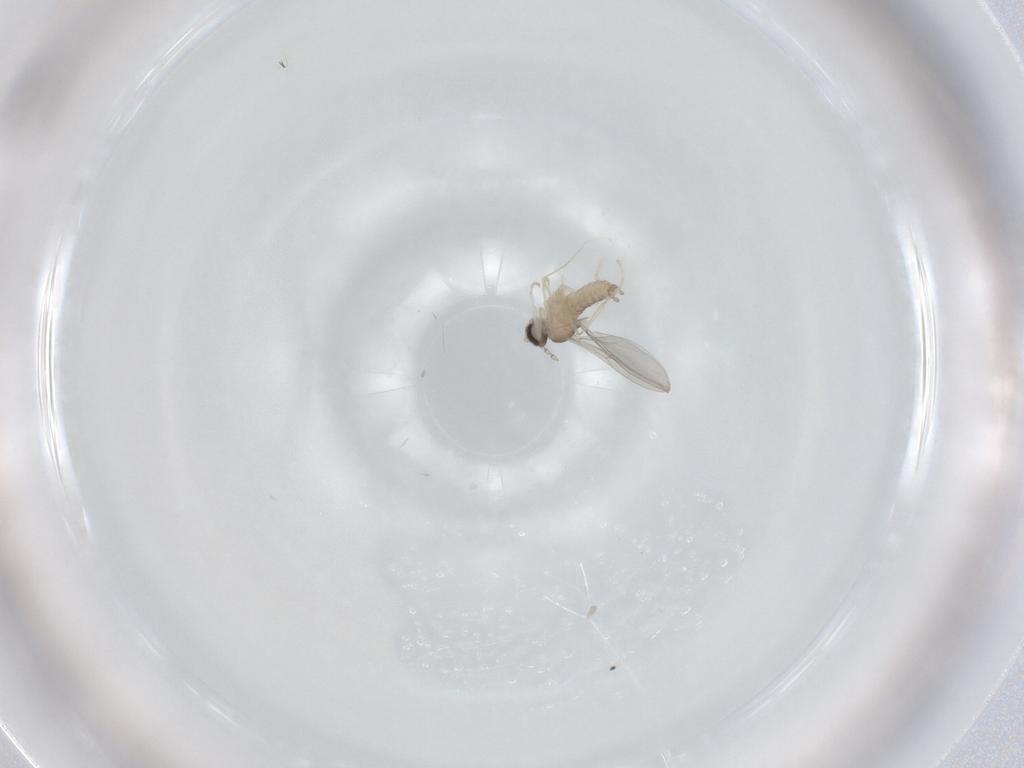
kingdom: Animalia
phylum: Arthropoda
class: Insecta
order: Diptera
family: Cecidomyiidae
